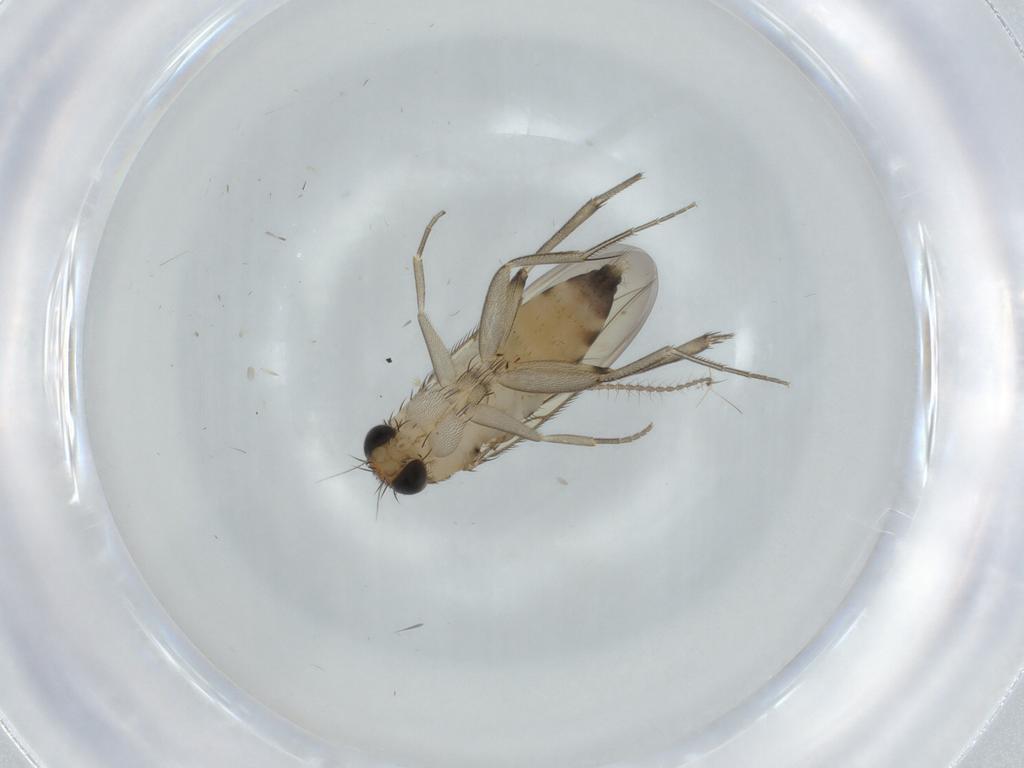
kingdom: Animalia
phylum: Arthropoda
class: Insecta
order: Diptera
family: Phoridae
